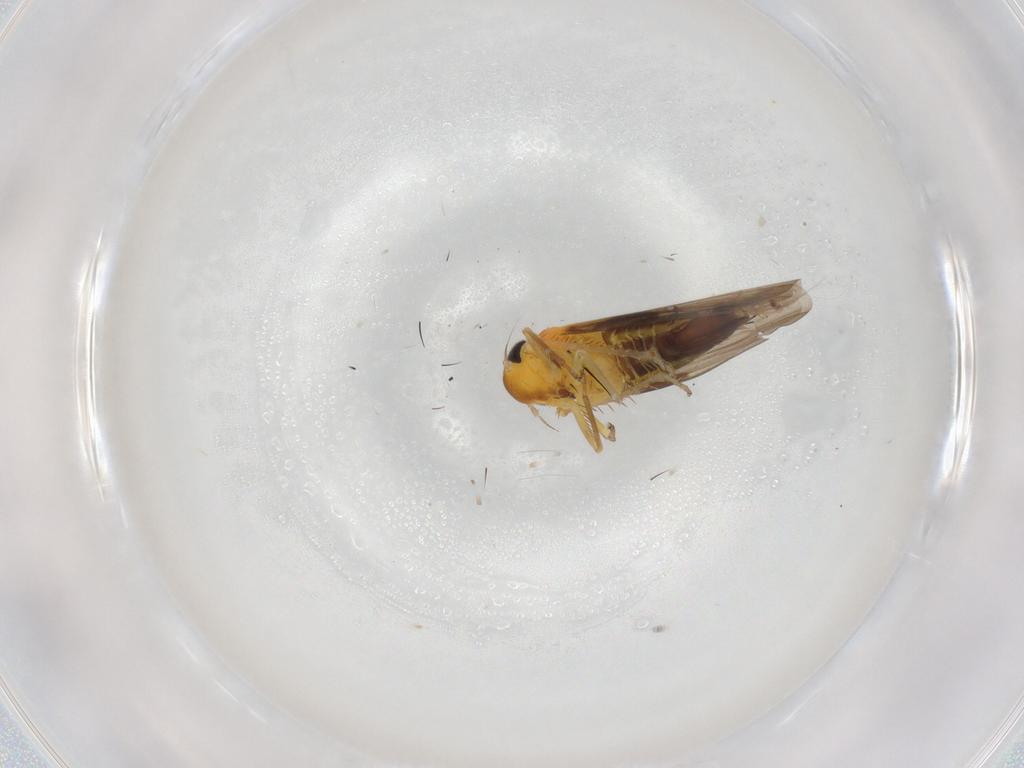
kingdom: Animalia
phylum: Arthropoda
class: Insecta
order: Hemiptera
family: Cicadellidae
